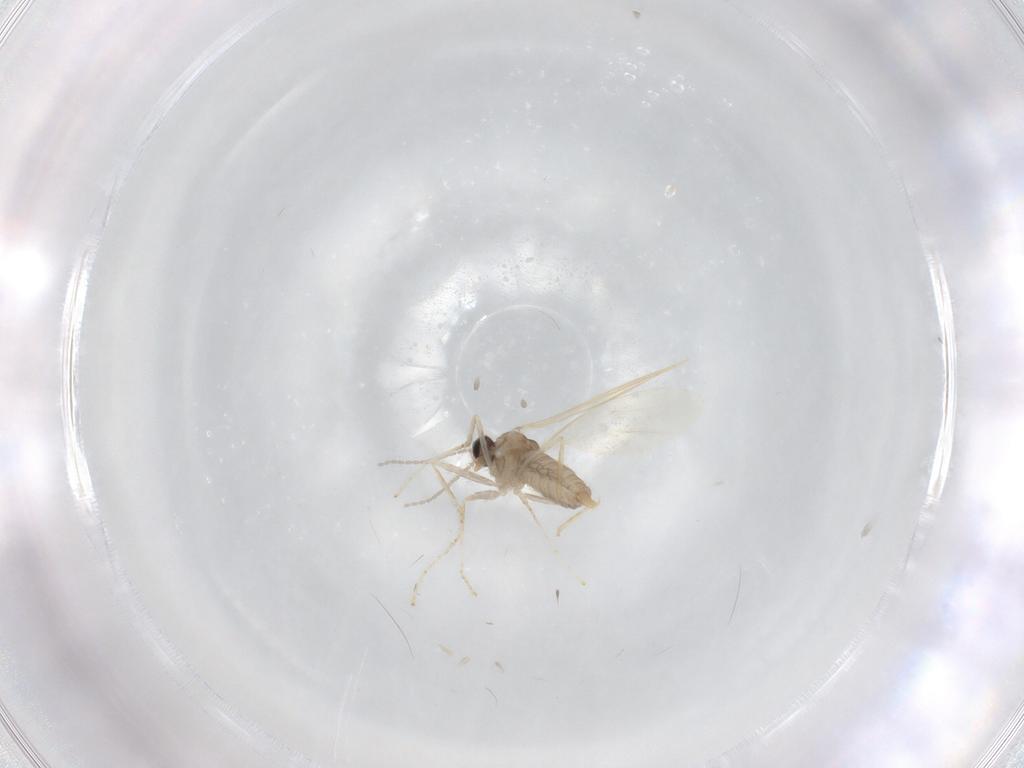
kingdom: Animalia
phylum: Arthropoda
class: Insecta
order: Diptera
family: Cecidomyiidae
